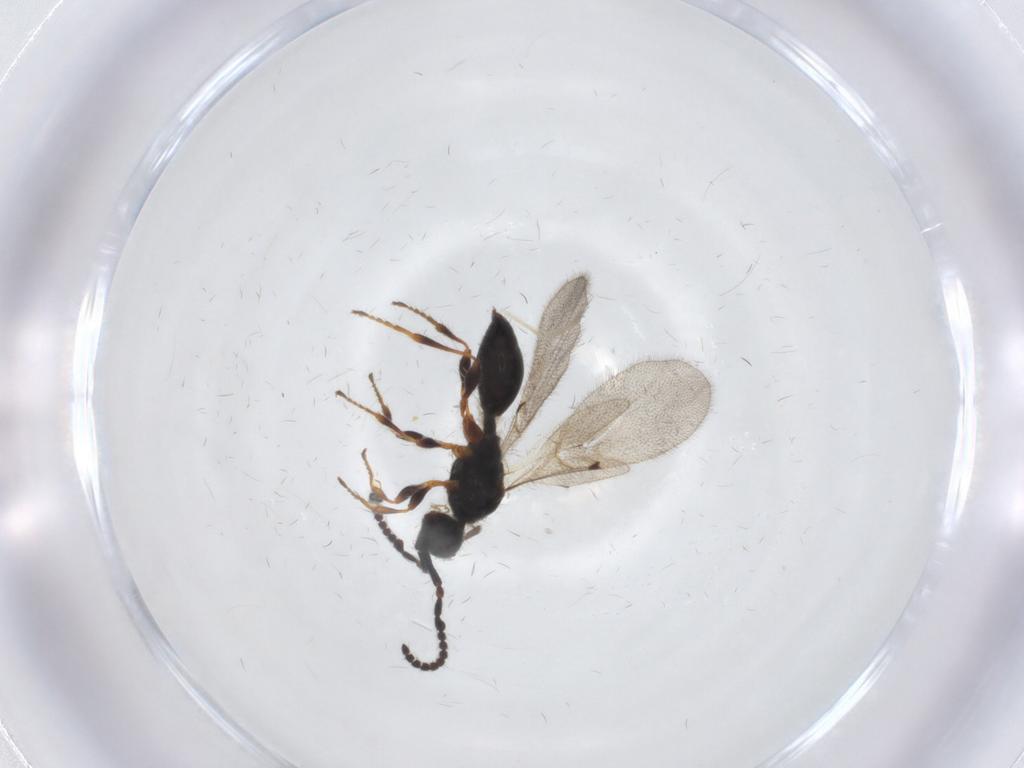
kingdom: Animalia
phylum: Arthropoda
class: Insecta
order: Hymenoptera
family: Diapriidae
